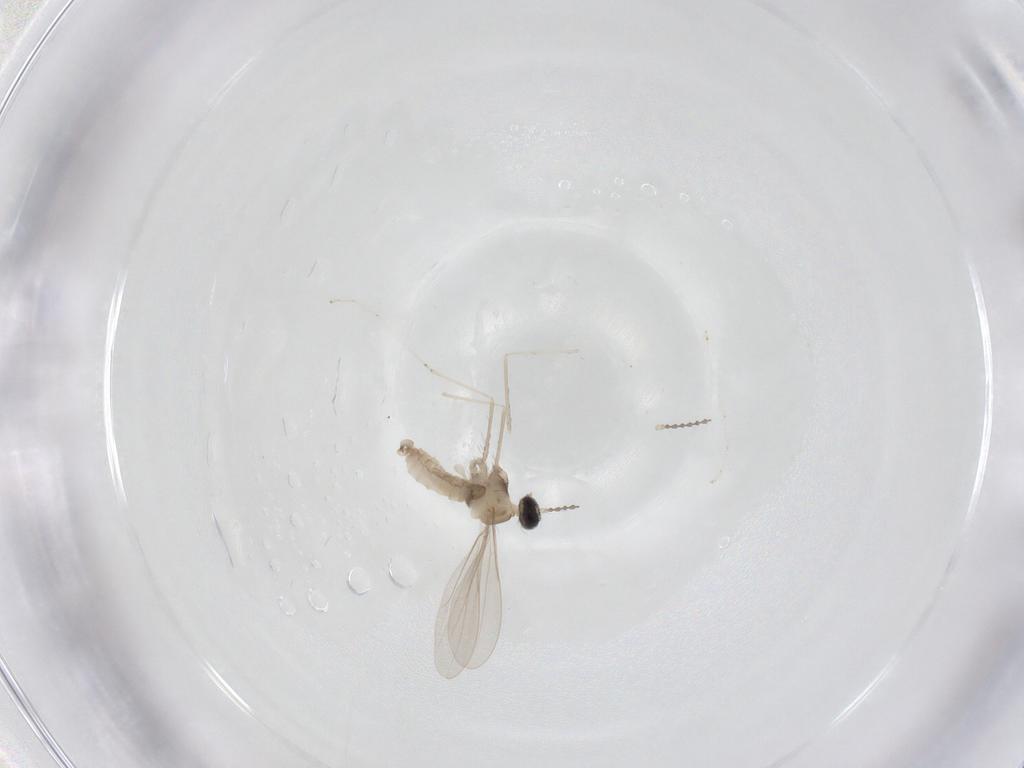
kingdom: Animalia
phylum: Arthropoda
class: Insecta
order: Diptera
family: Cecidomyiidae
